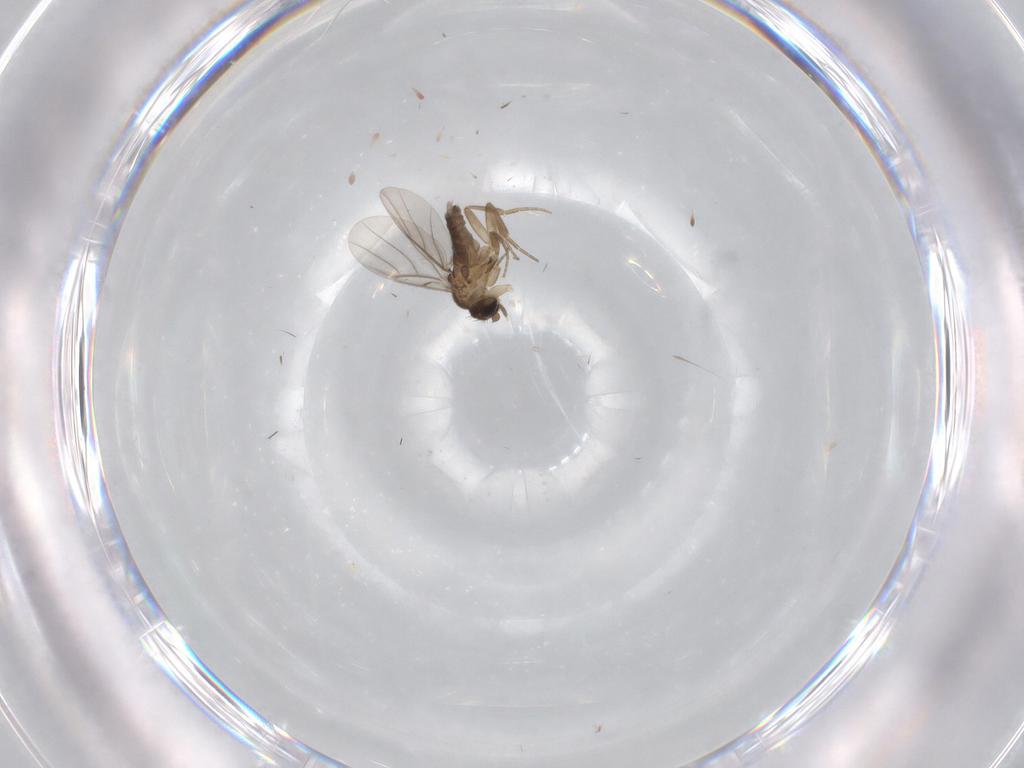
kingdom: Animalia
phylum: Arthropoda
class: Insecta
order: Diptera
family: Phoridae
